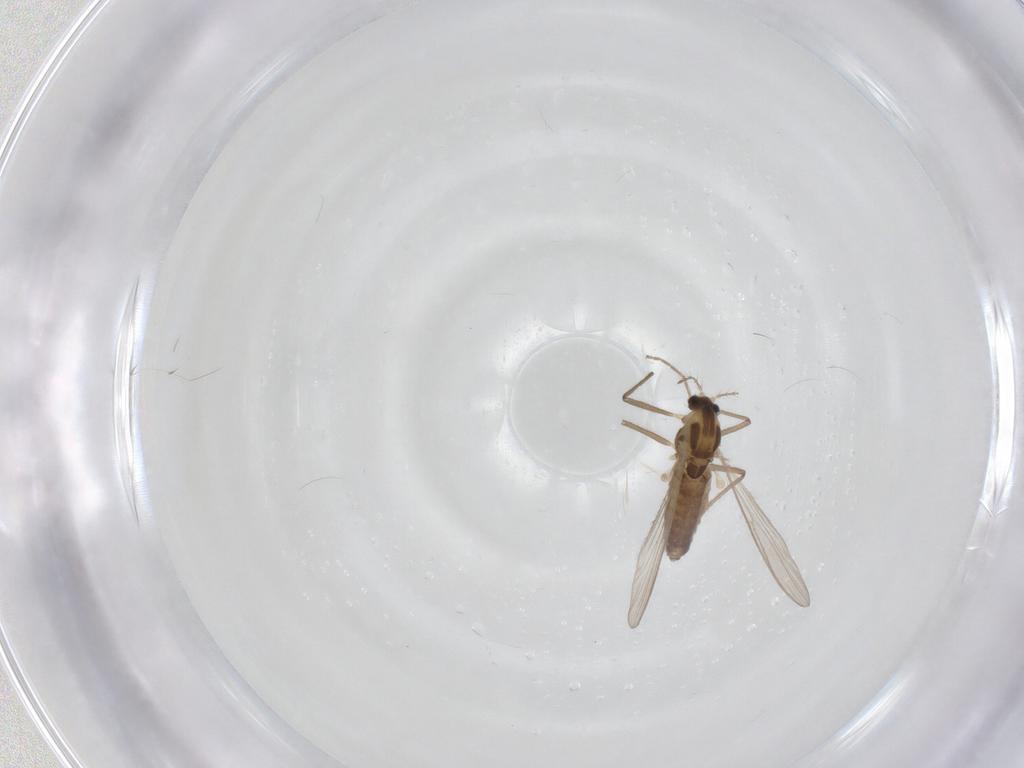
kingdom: Animalia
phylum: Arthropoda
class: Insecta
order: Diptera
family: Chironomidae
